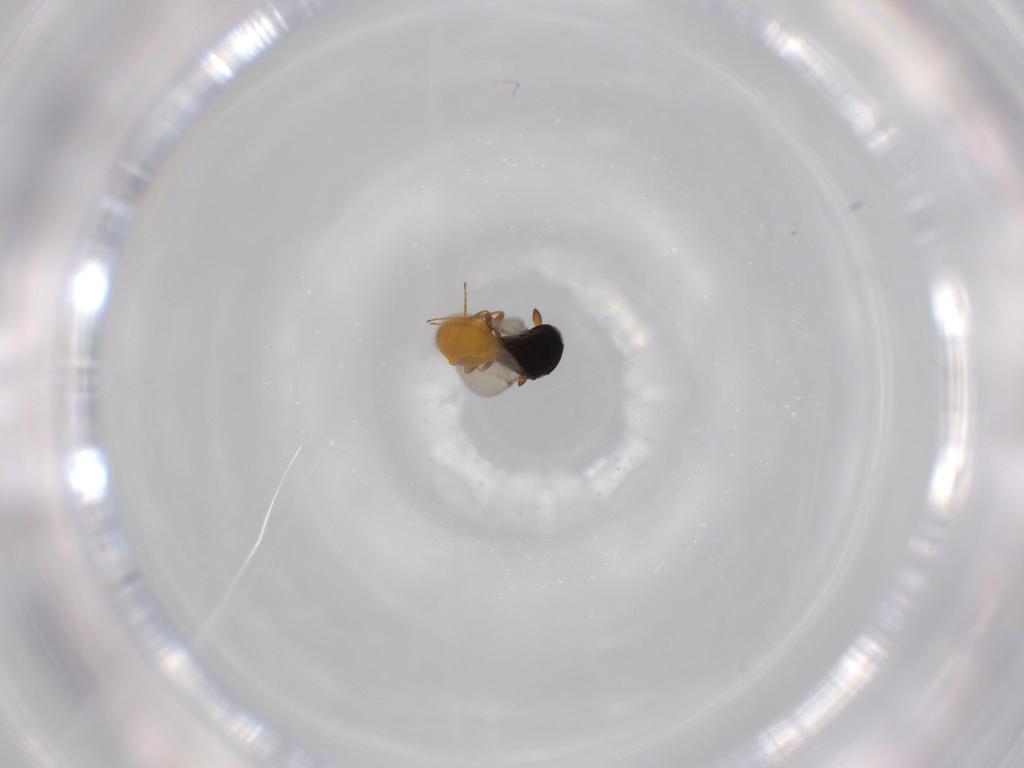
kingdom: Animalia
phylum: Arthropoda
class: Insecta
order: Hymenoptera
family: Scelionidae
